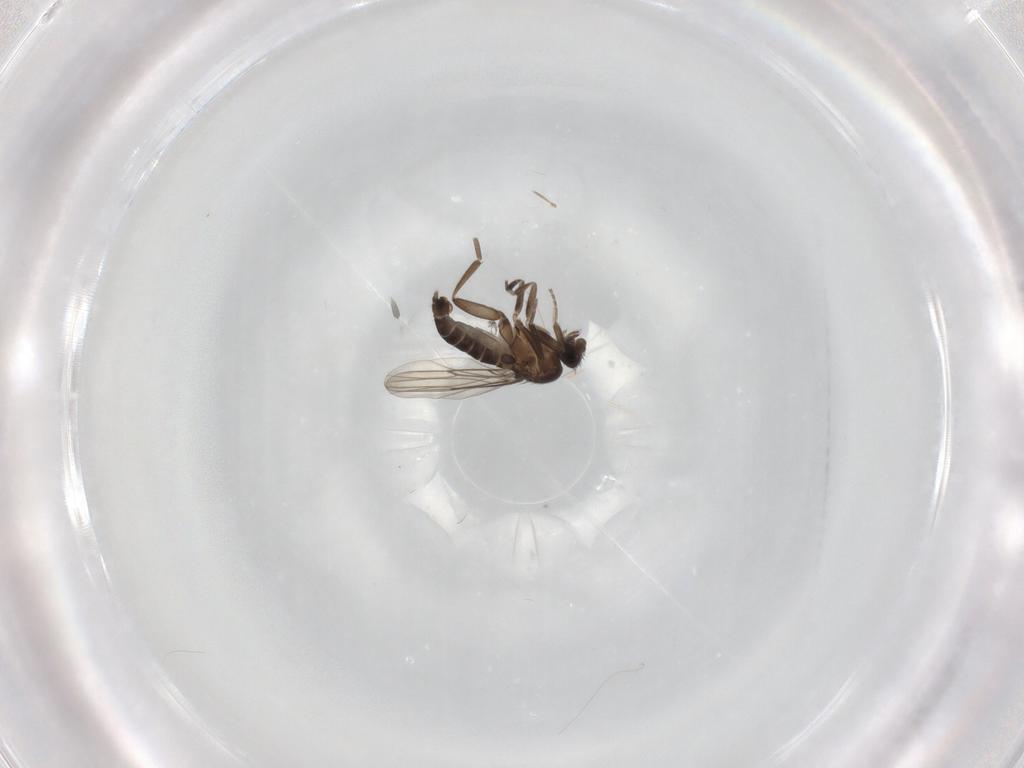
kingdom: Animalia
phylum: Arthropoda
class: Insecta
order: Diptera
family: Phoridae
